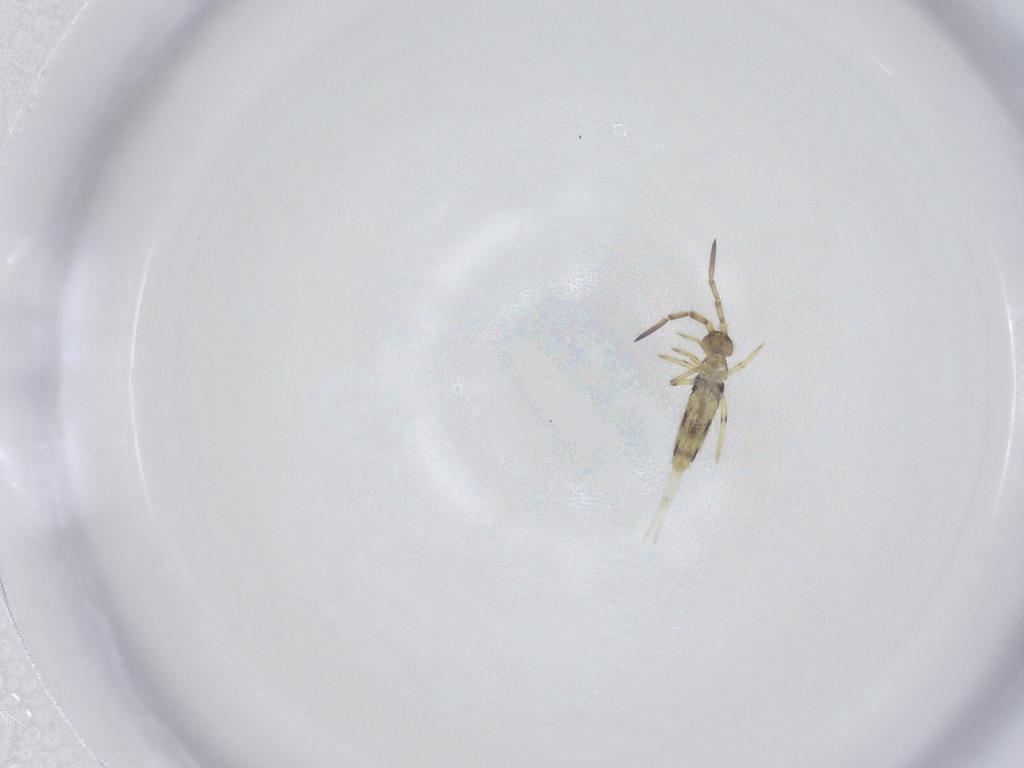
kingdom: Animalia
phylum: Arthropoda
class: Collembola
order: Entomobryomorpha
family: Entomobryidae
